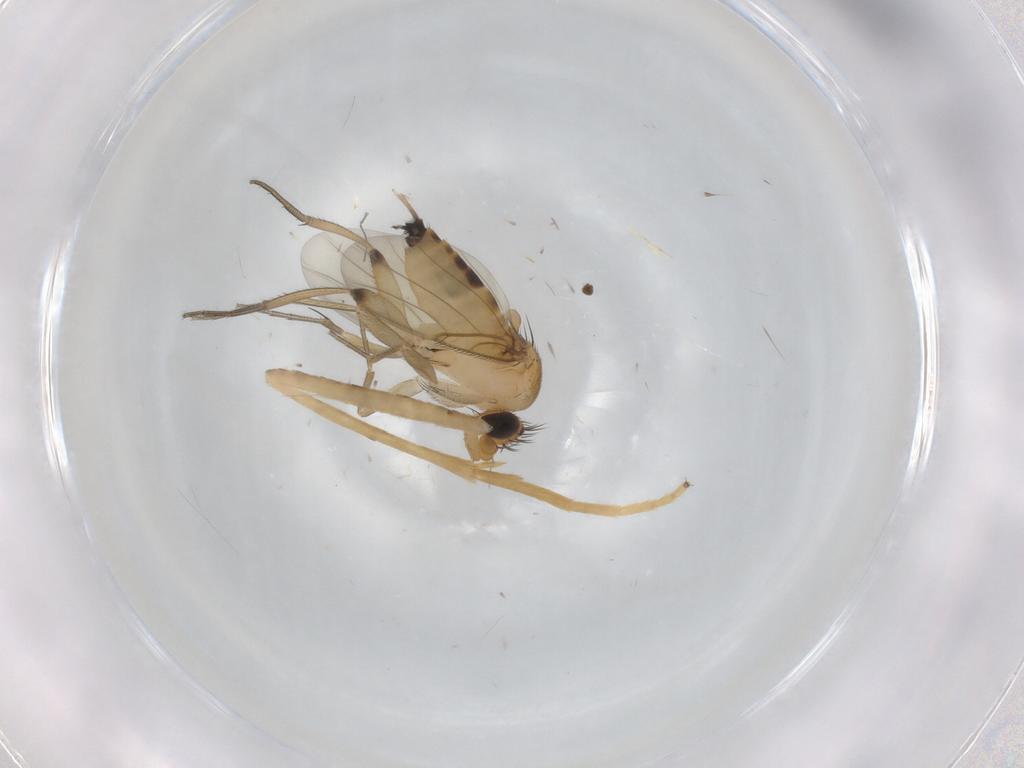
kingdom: Animalia
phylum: Arthropoda
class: Insecta
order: Diptera
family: Phoridae
